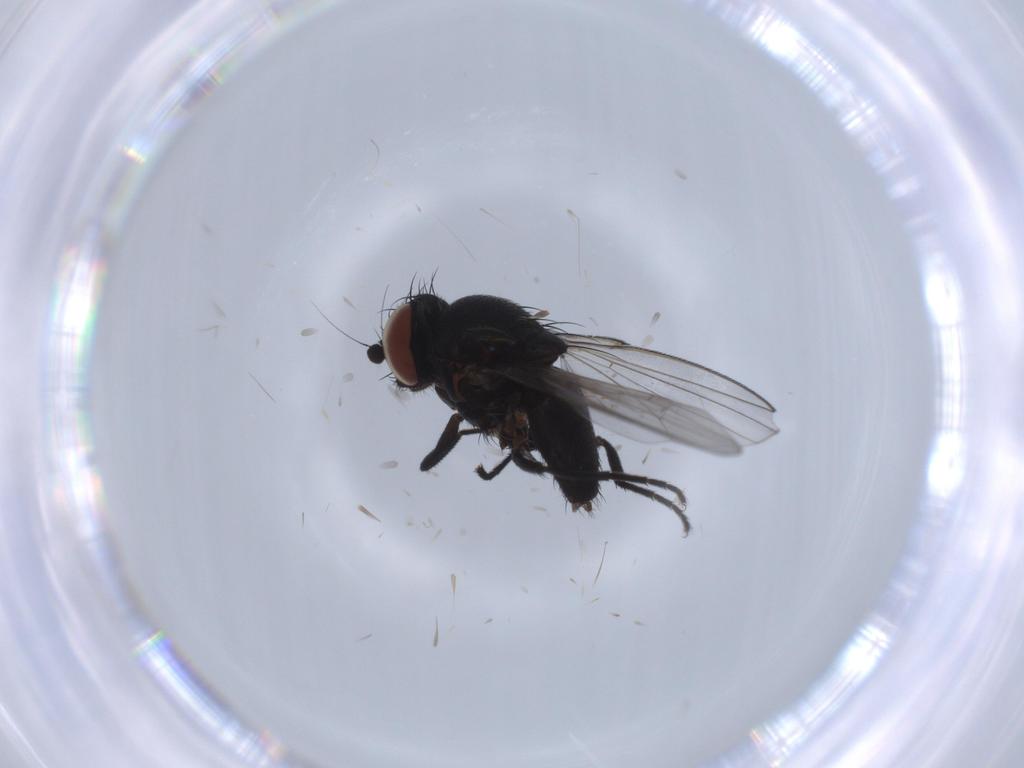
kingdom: Animalia
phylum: Arthropoda
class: Insecta
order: Diptera
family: Milichiidae
